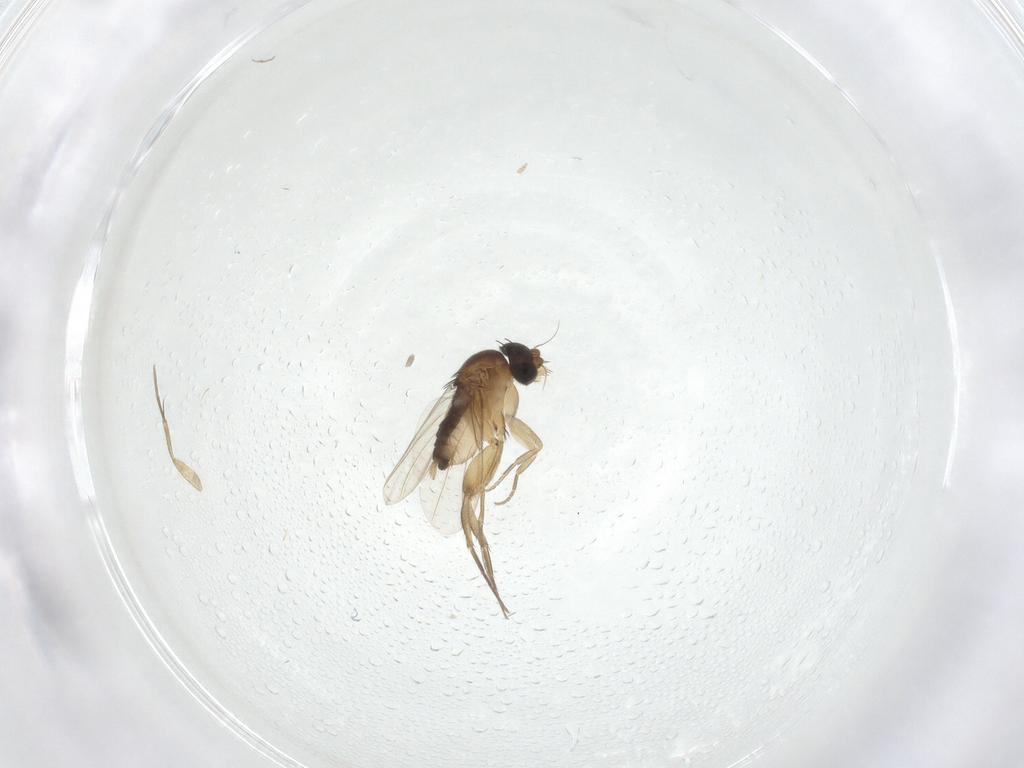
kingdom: Animalia
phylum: Arthropoda
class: Insecta
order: Diptera
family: Phoridae
